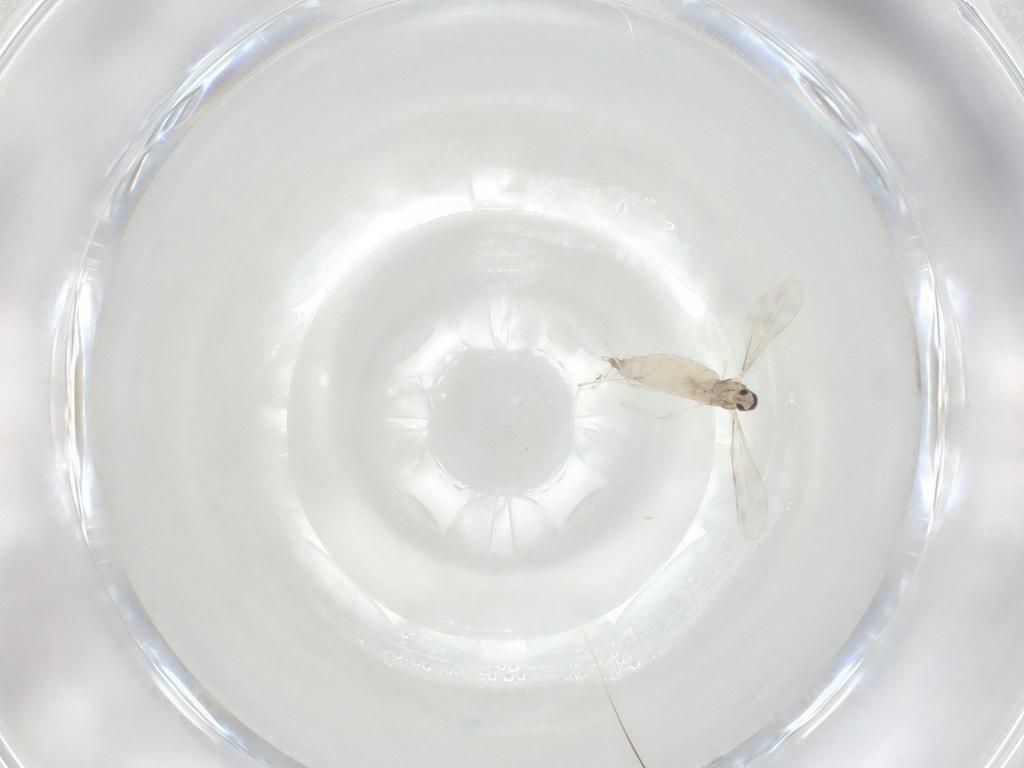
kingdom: Animalia
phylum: Arthropoda
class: Insecta
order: Diptera
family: Cecidomyiidae
